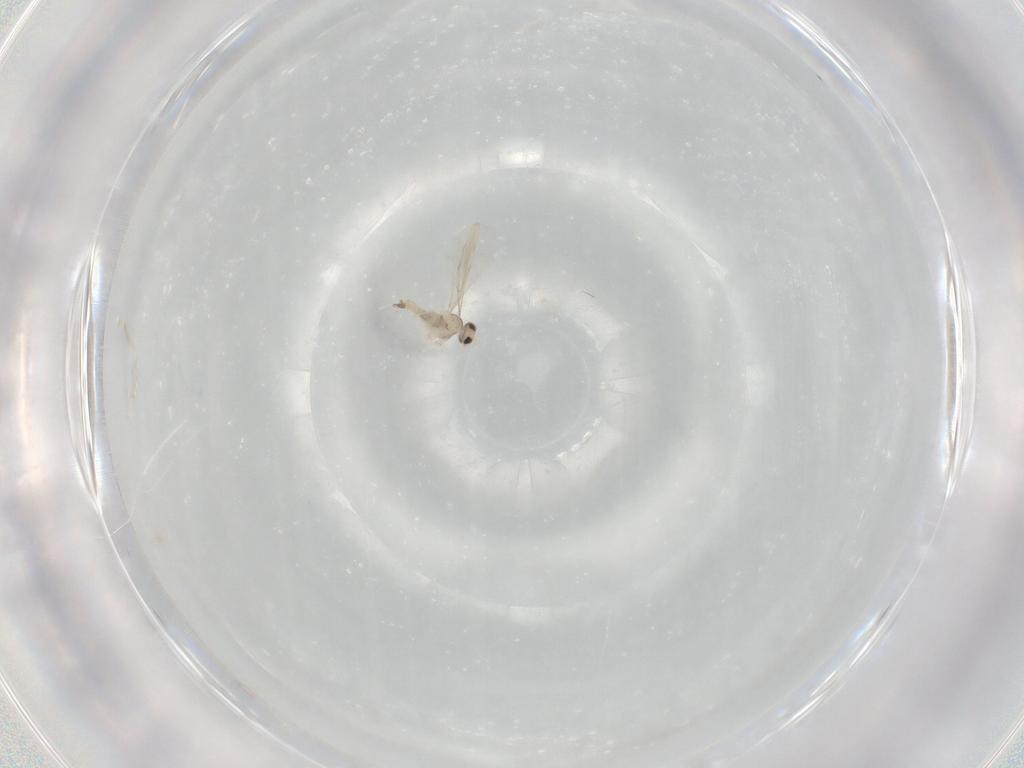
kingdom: Animalia
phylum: Arthropoda
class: Insecta
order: Diptera
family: Cecidomyiidae
